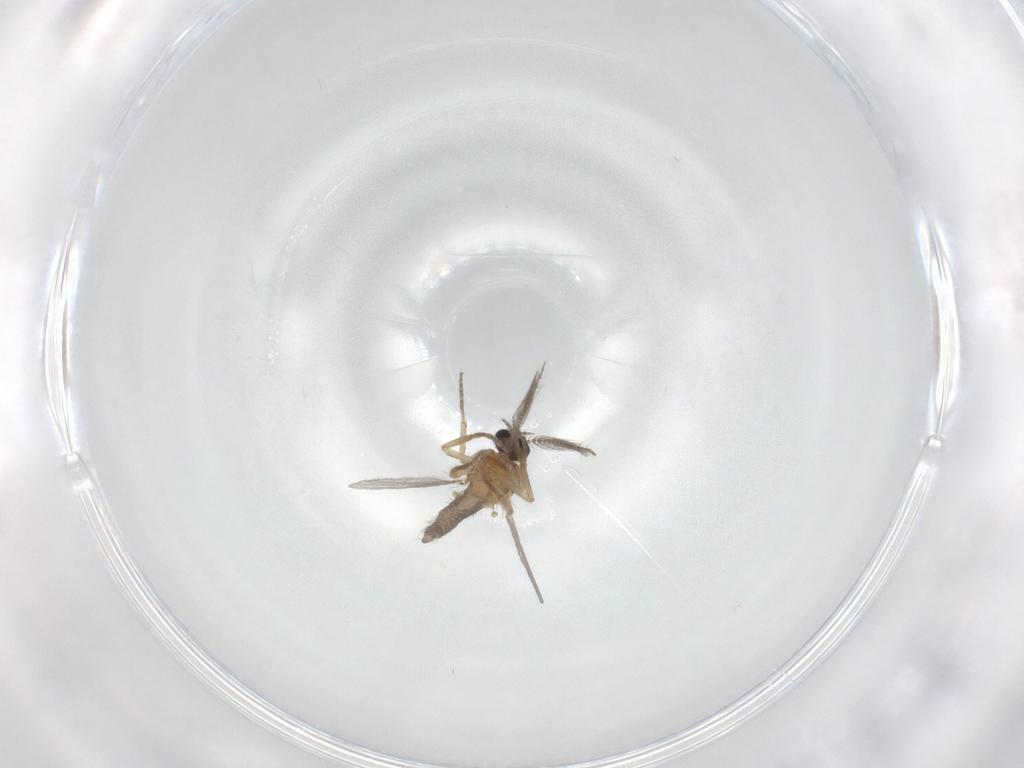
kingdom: Animalia
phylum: Arthropoda
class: Insecta
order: Diptera
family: Ceratopogonidae
